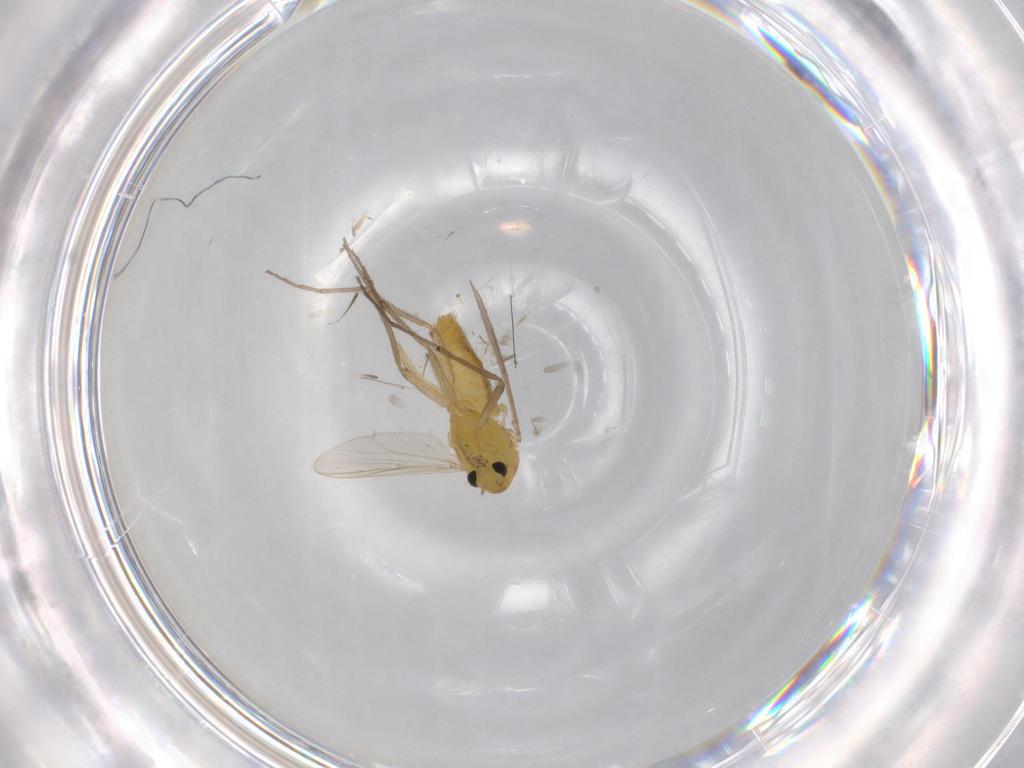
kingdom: Animalia
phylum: Arthropoda
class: Insecta
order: Diptera
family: Chironomidae
